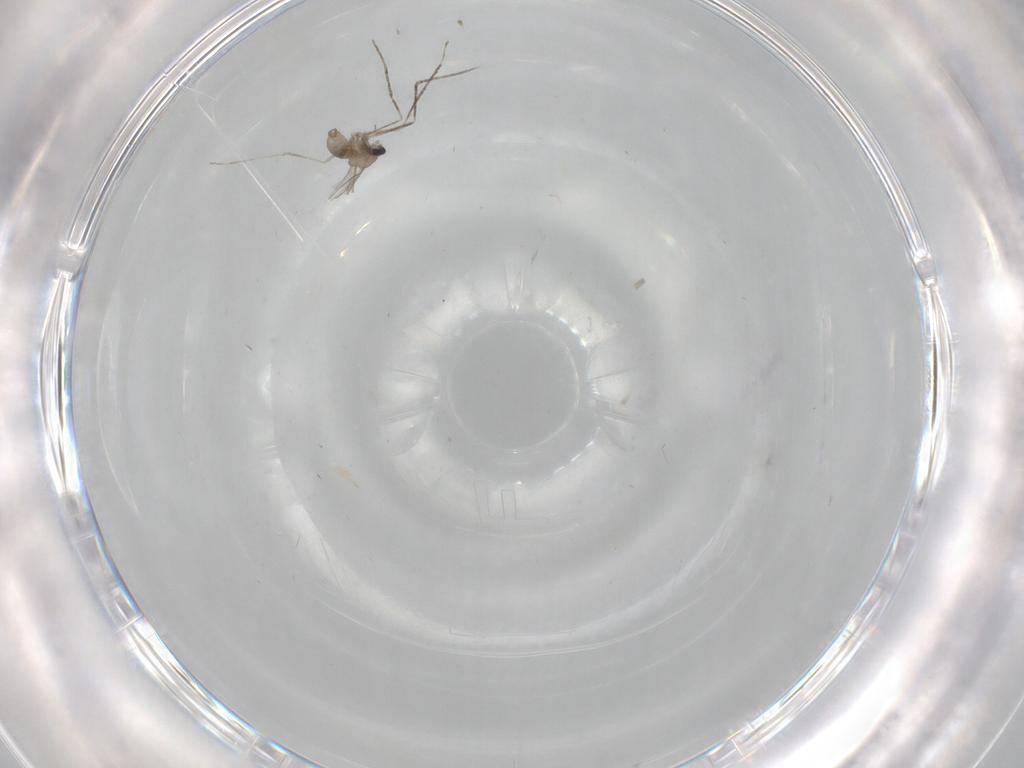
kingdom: Animalia
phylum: Arthropoda
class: Insecta
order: Diptera
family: Cecidomyiidae
